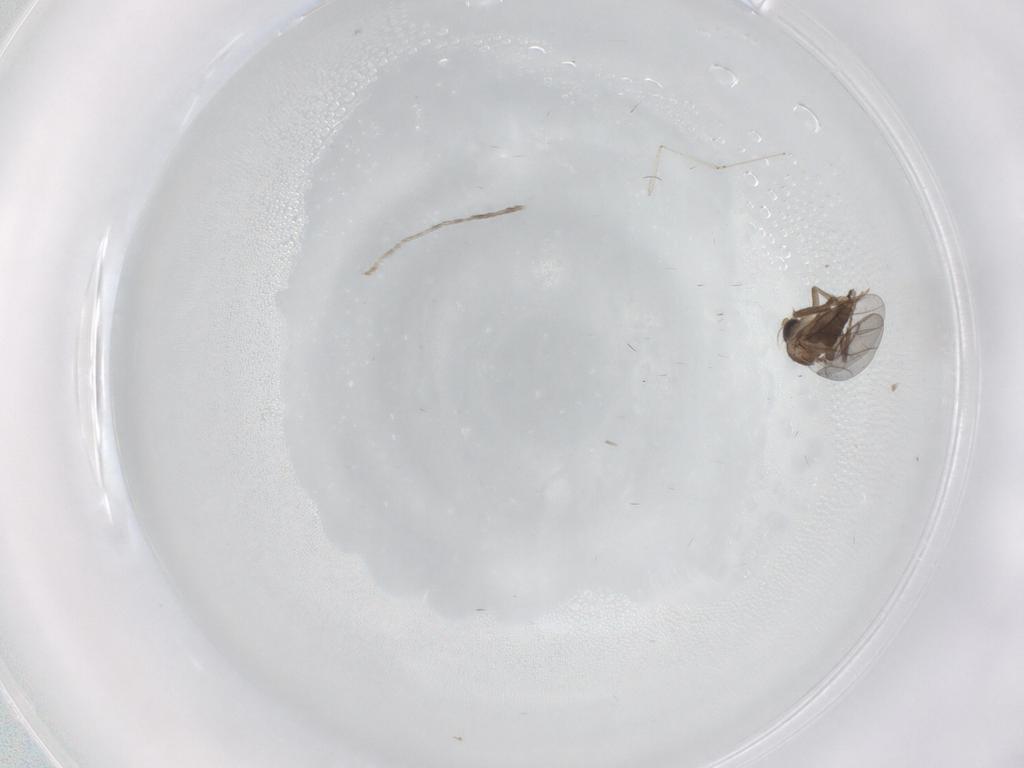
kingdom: Animalia
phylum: Arthropoda
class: Insecta
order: Diptera
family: Cecidomyiidae
